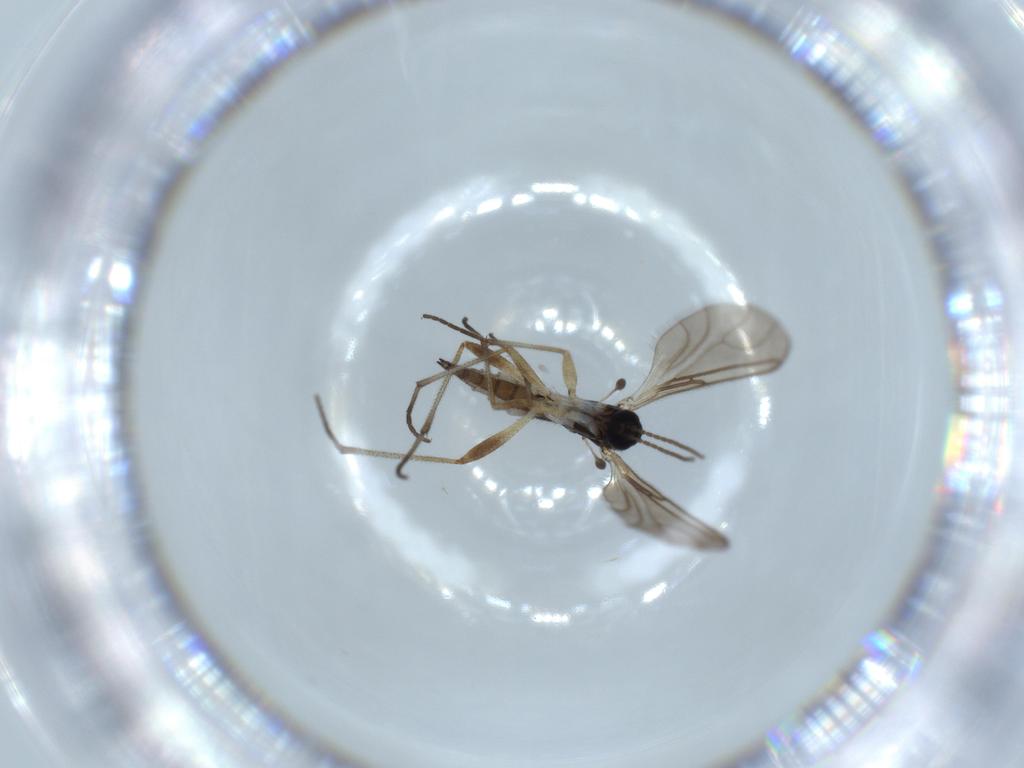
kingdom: Animalia
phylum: Arthropoda
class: Insecta
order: Diptera
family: Sciaridae
